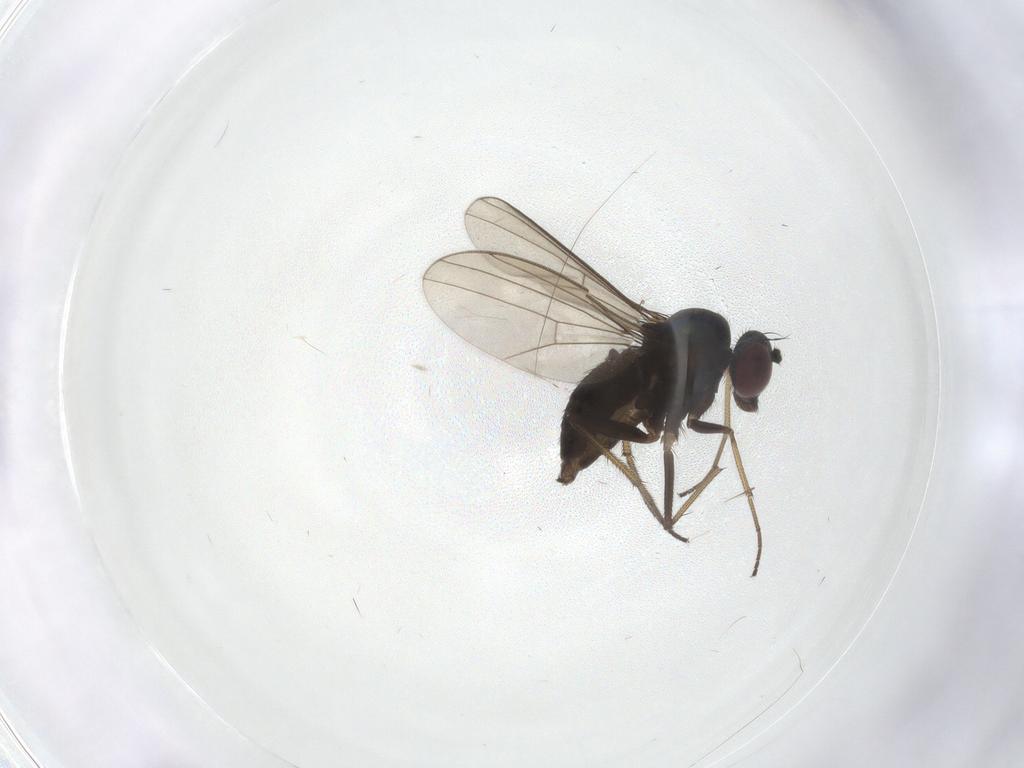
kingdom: Animalia
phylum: Arthropoda
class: Insecta
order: Diptera
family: Dolichopodidae
